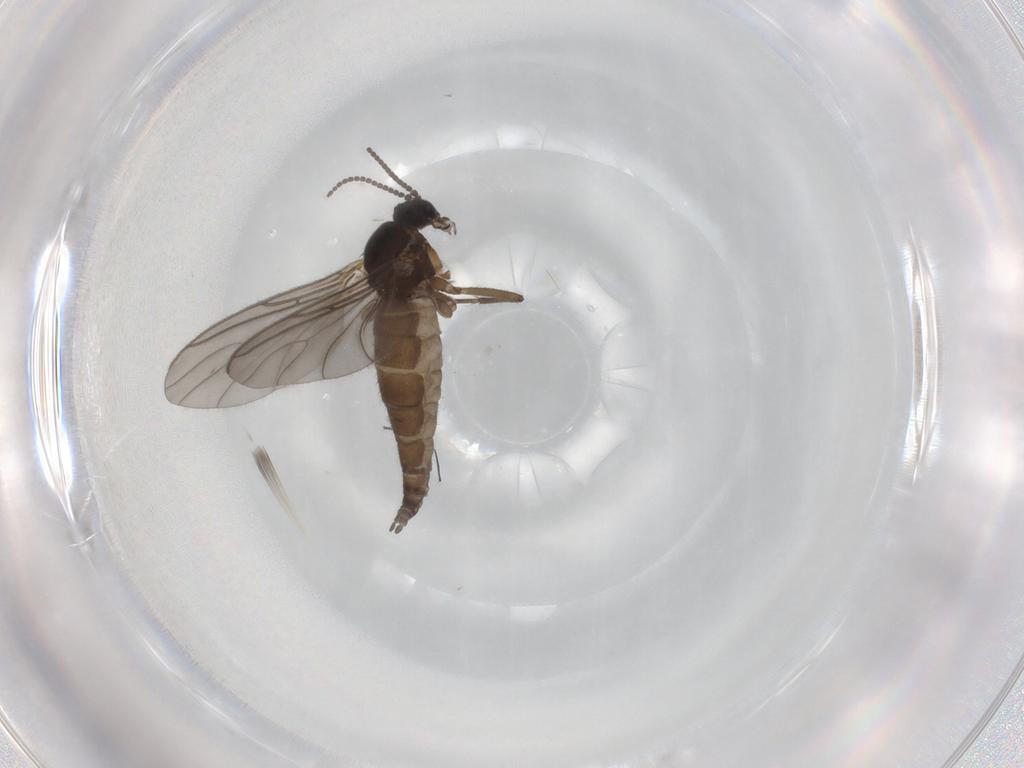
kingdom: Animalia
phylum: Arthropoda
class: Insecta
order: Diptera
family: Sciaridae
